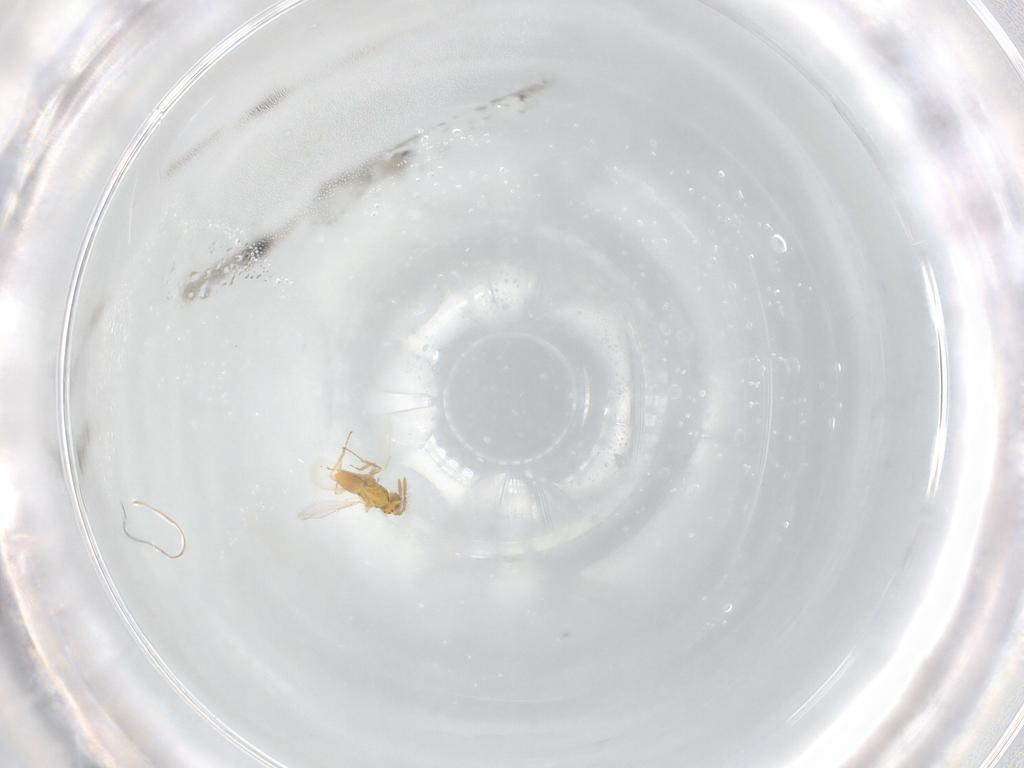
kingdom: Animalia
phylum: Arthropoda
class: Insecta
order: Hymenoptera
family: Aphelinidae
